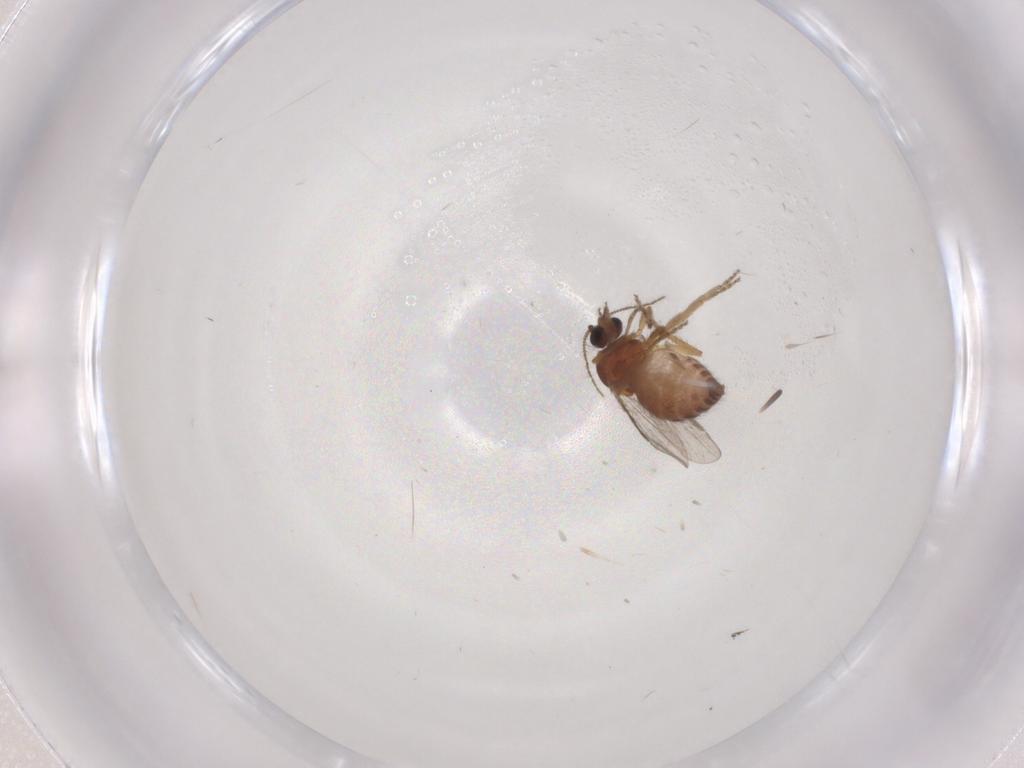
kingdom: Animalia
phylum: Arthropoda
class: Insecta
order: Diptera
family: Ceratopogonidae
